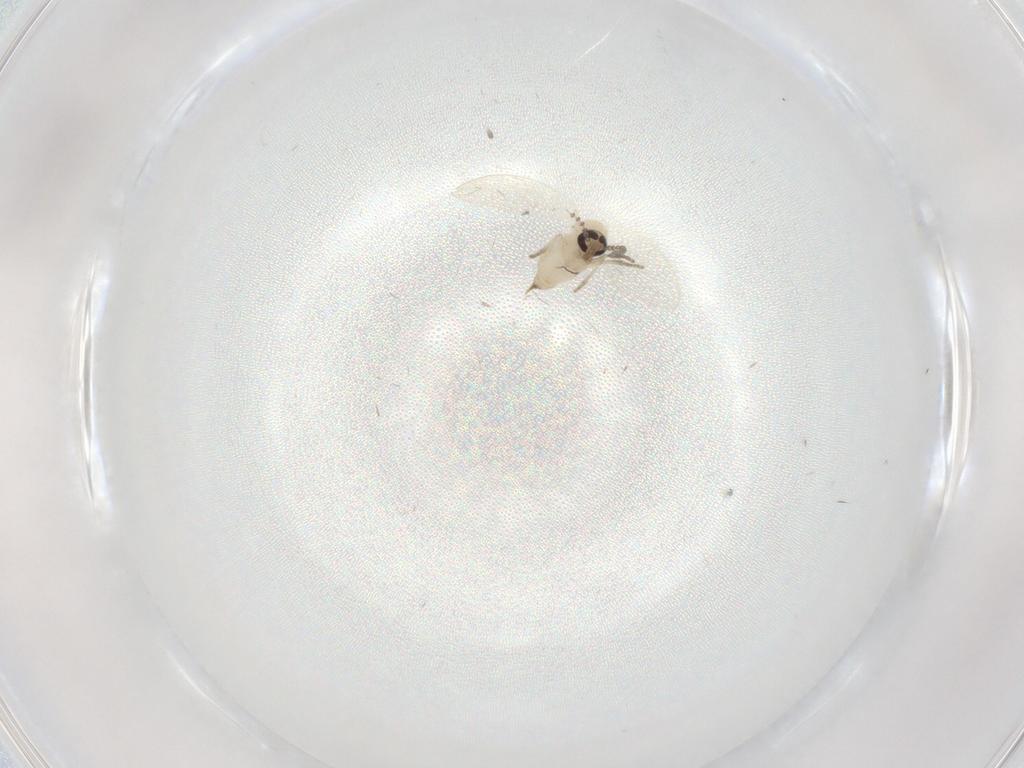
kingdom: Animalia
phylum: Arthropoda
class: Insecta
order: Diptera
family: Psychodidae
